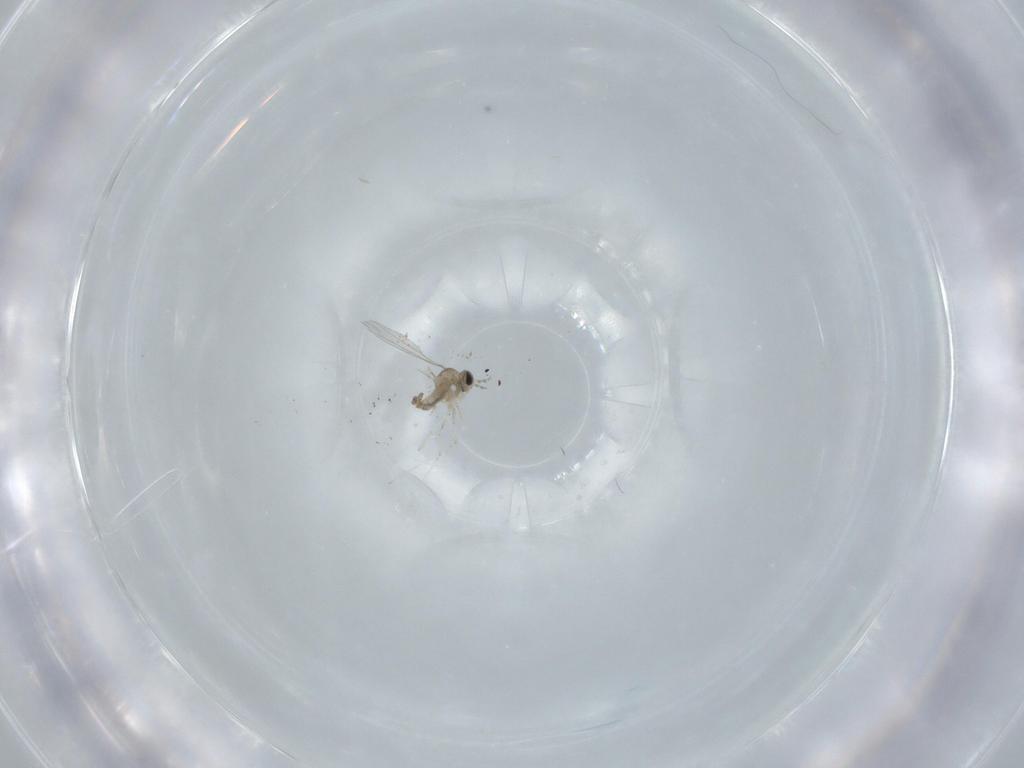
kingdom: Animalia
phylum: Arthropoda
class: Insecta
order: Diptera
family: Cecidomyiidae
